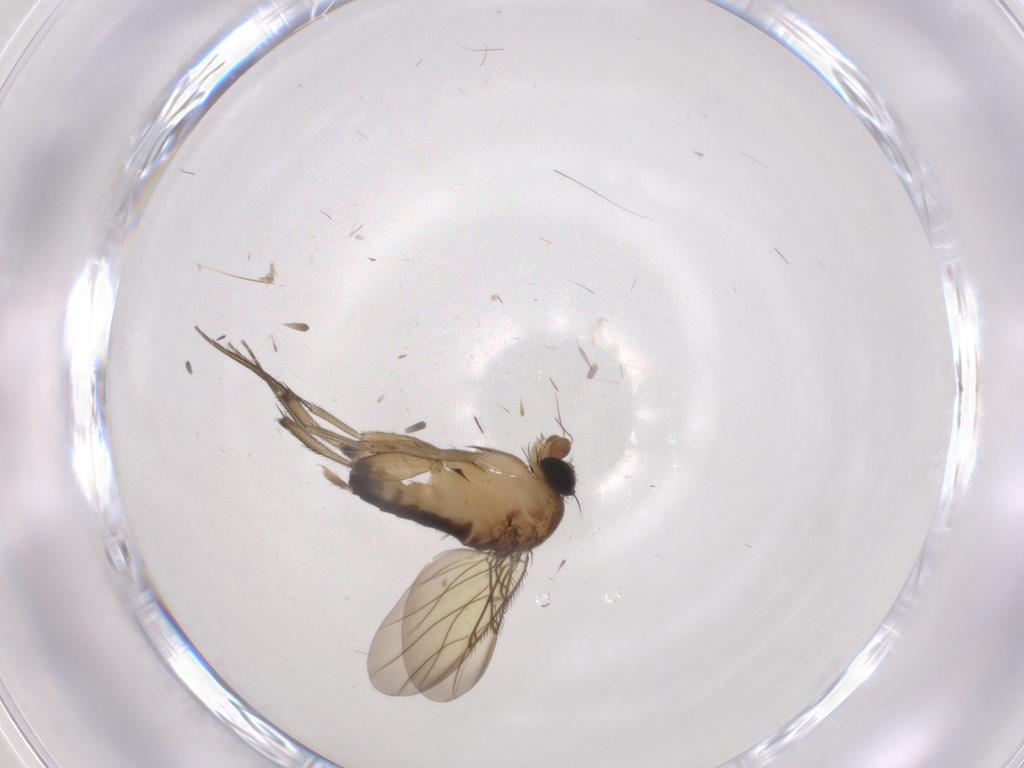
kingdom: Animalia
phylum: Arthropoda
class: Insecta
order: Diptera
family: Phoridae
